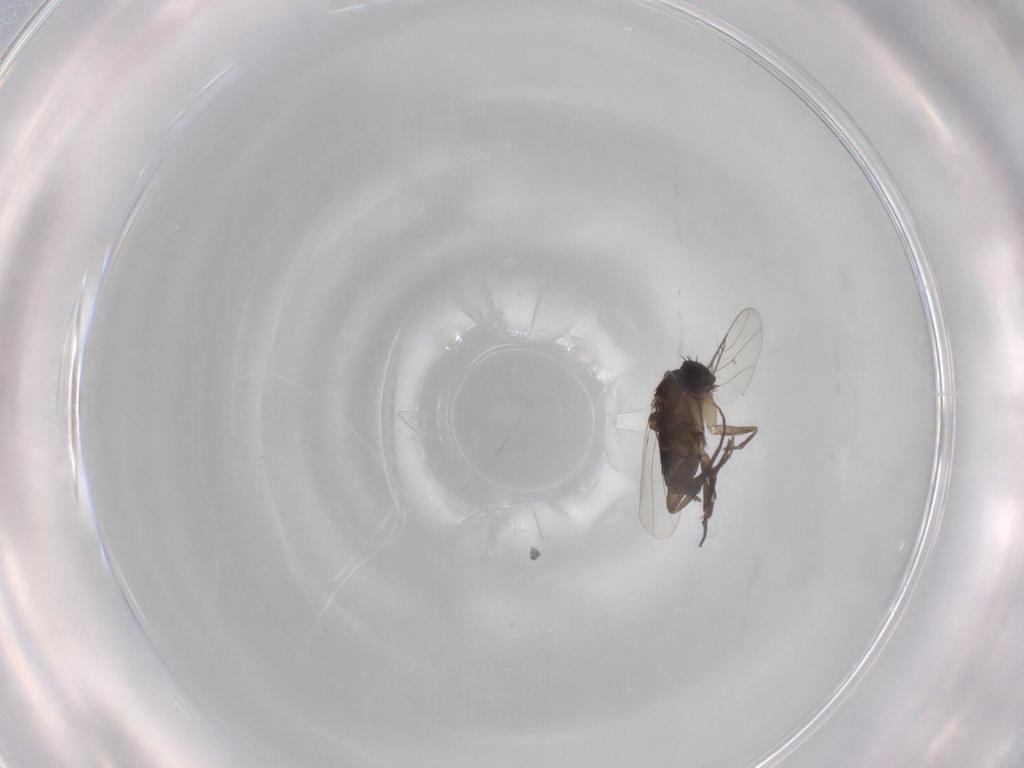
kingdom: Animalia
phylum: Arthropoda
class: Insecta
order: Diptera
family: Phoridae
